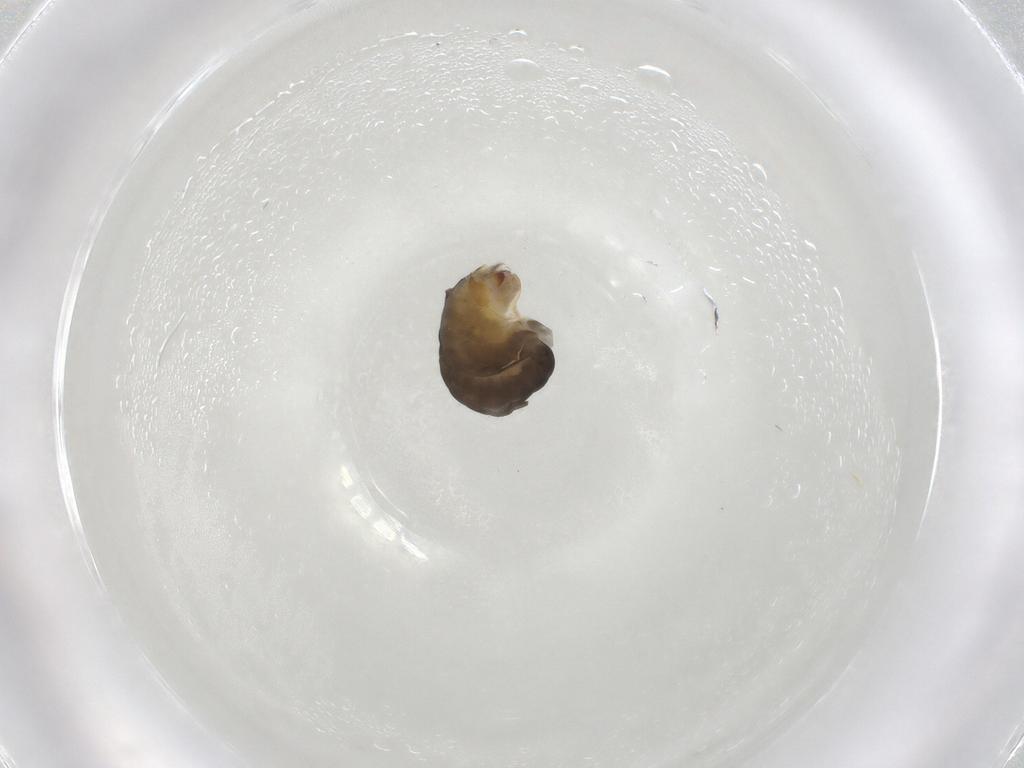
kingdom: Animalia
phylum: Arthropoda
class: Insecta
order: Hymenoptera
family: Dryinidae
